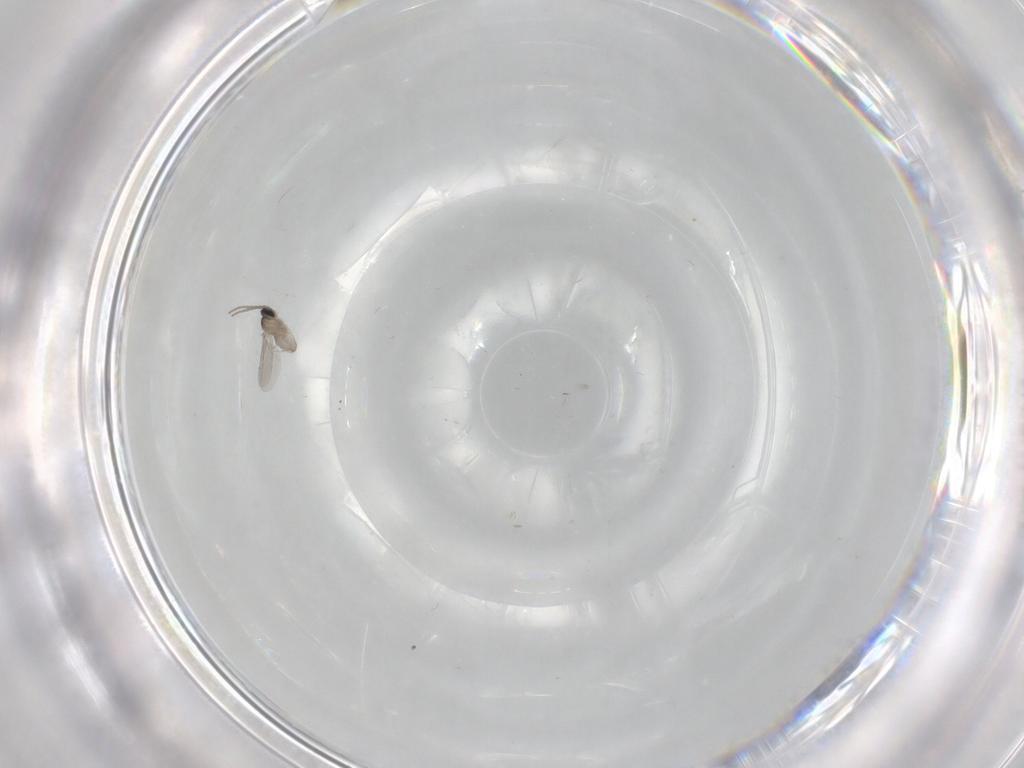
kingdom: Animalia
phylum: Arthropoda
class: Insecta
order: Diptera
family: Cecidomyiidae
